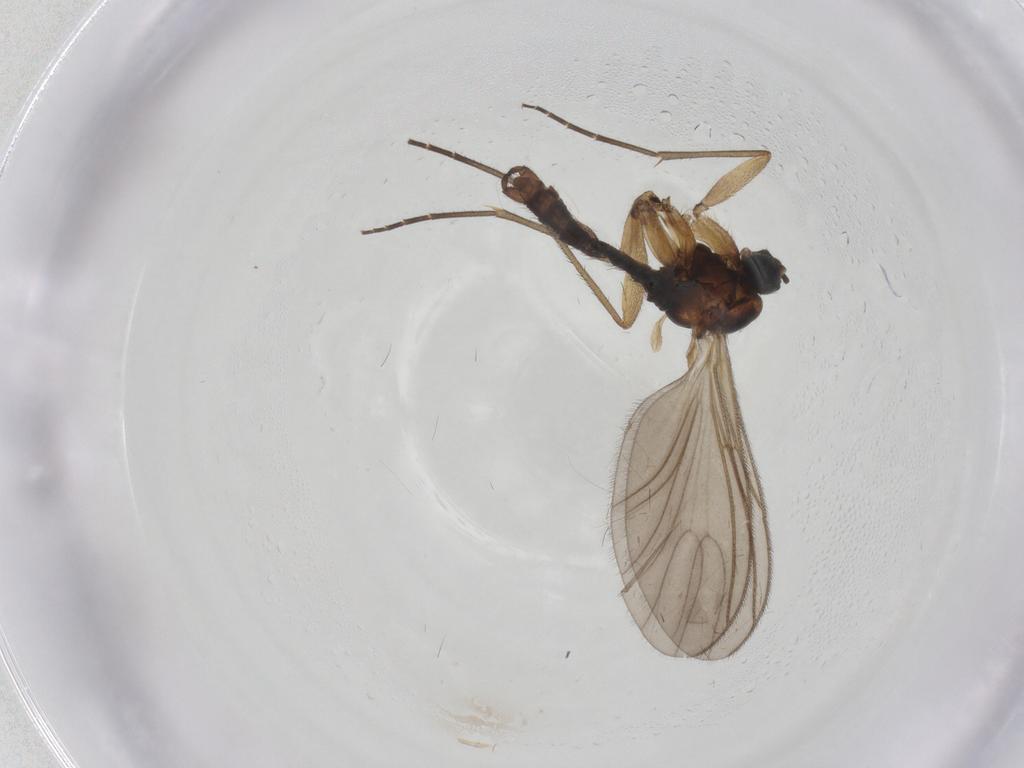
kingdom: Animalia
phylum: Arthropoda
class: Insecta
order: Diptera
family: Sciaridae
